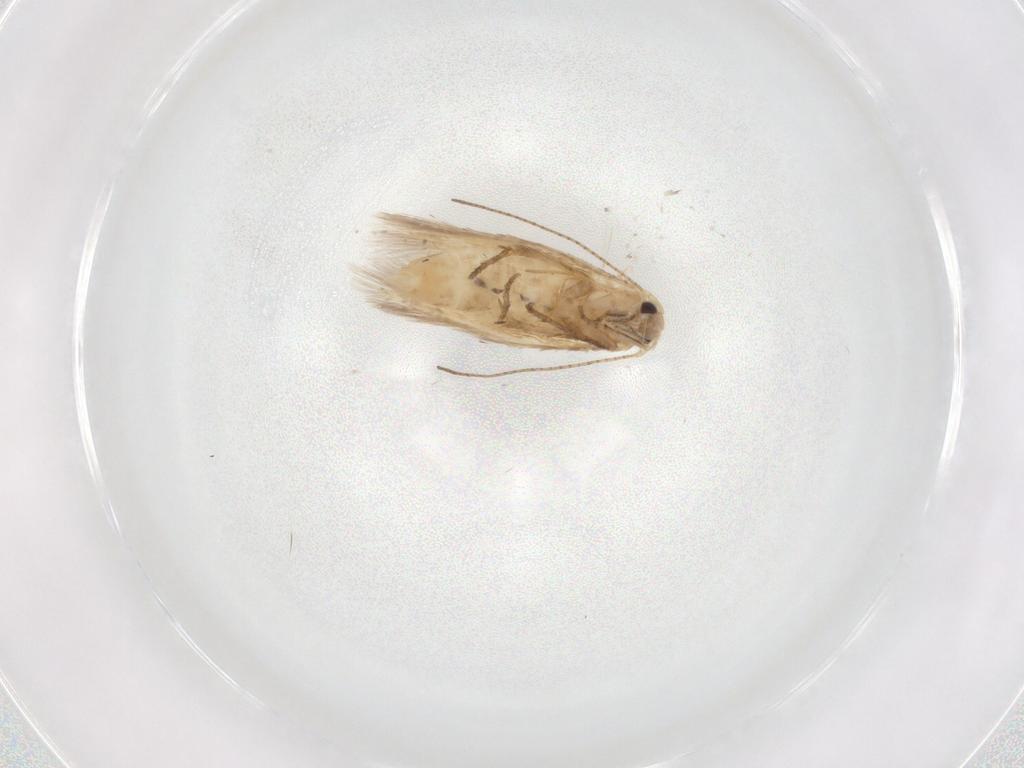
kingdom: Animalia
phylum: Arthropoda
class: Insecta
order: Lepidoptera
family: Bucculatricidae
